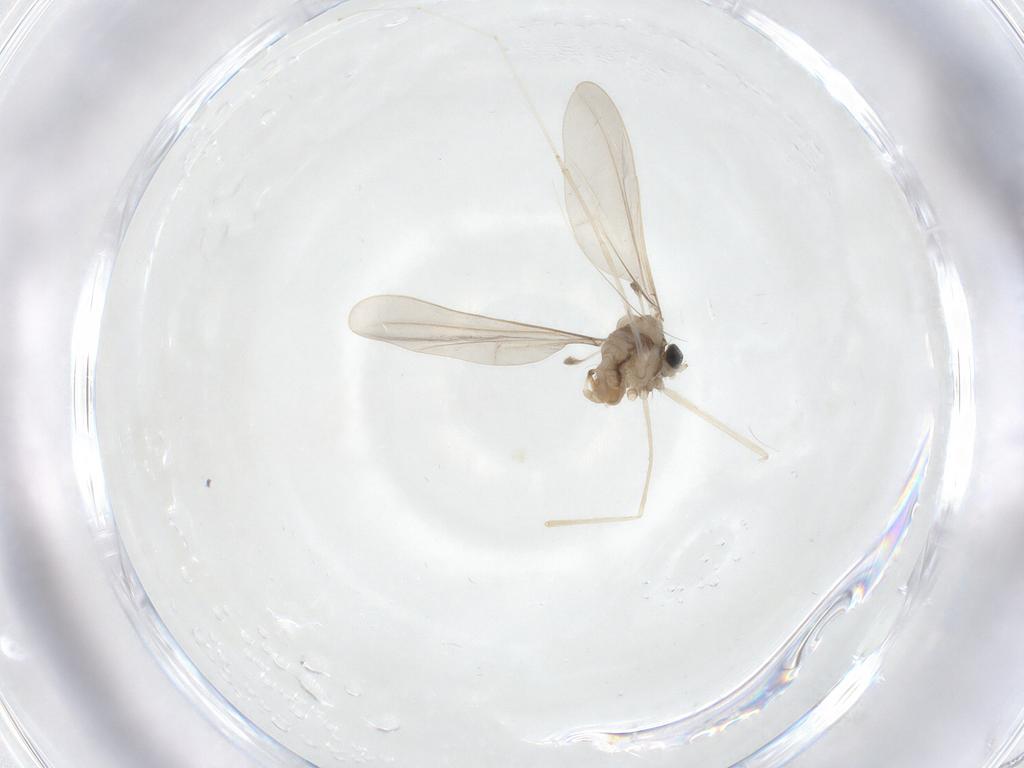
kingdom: Animalia
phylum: Arthropoda
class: Insecta
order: Diptera
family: Cecidomyiidae
